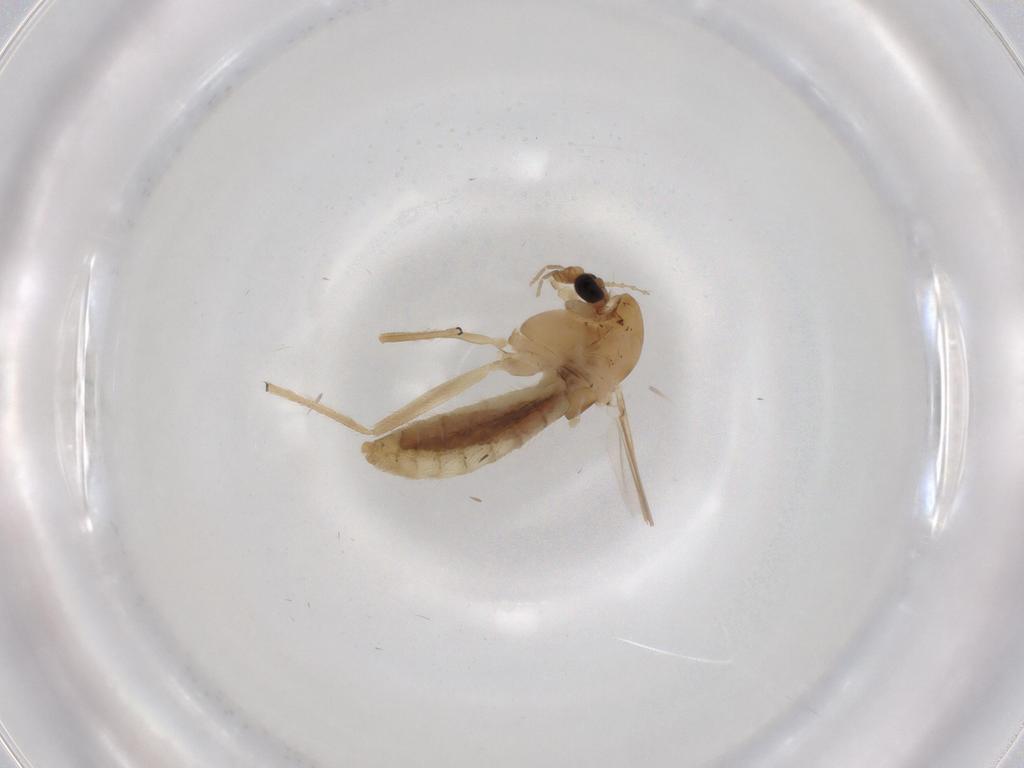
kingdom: Animalia
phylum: Arthropoda
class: Insecta
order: Diptera
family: Chironomidae
